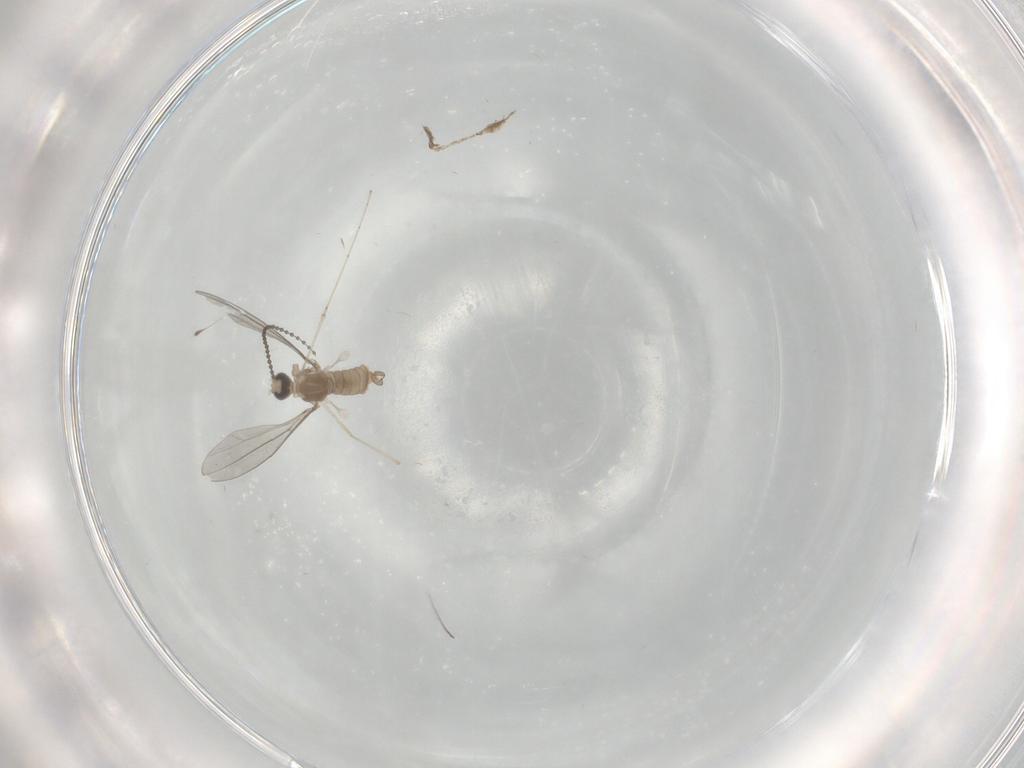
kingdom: Animalia
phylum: Arthropoda
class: Insecta
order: Diptera
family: Cecidomyiidae
